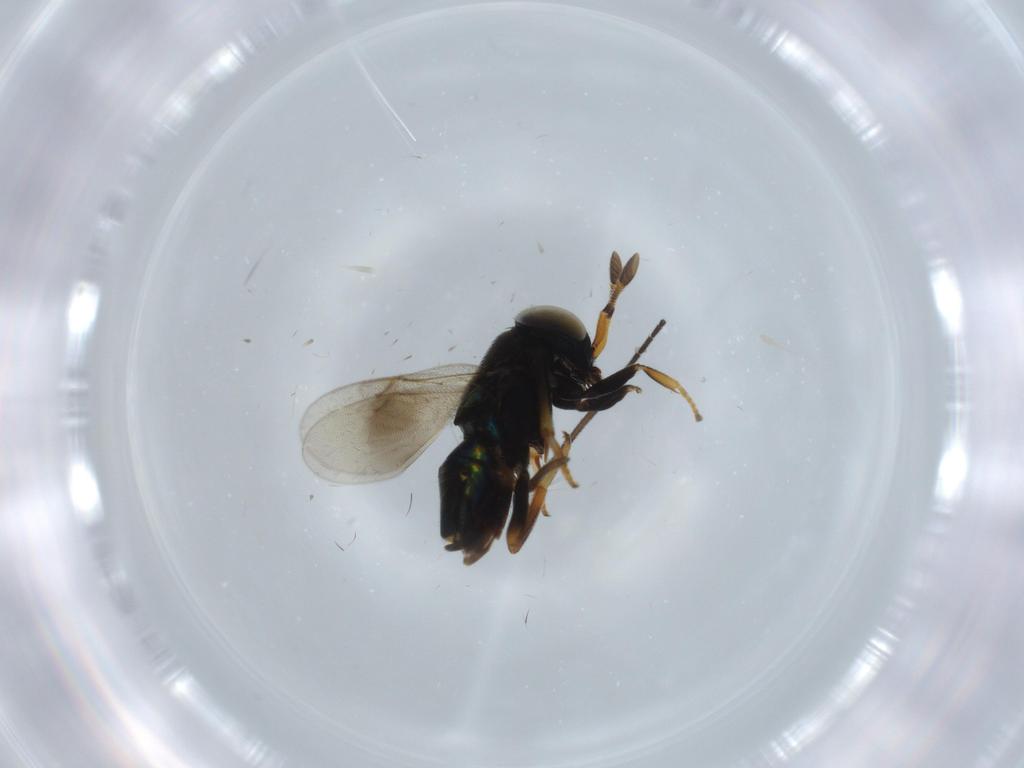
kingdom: Animalia
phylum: Arthropoda
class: Insecta
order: Hymenoptera
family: Encyrtidae
